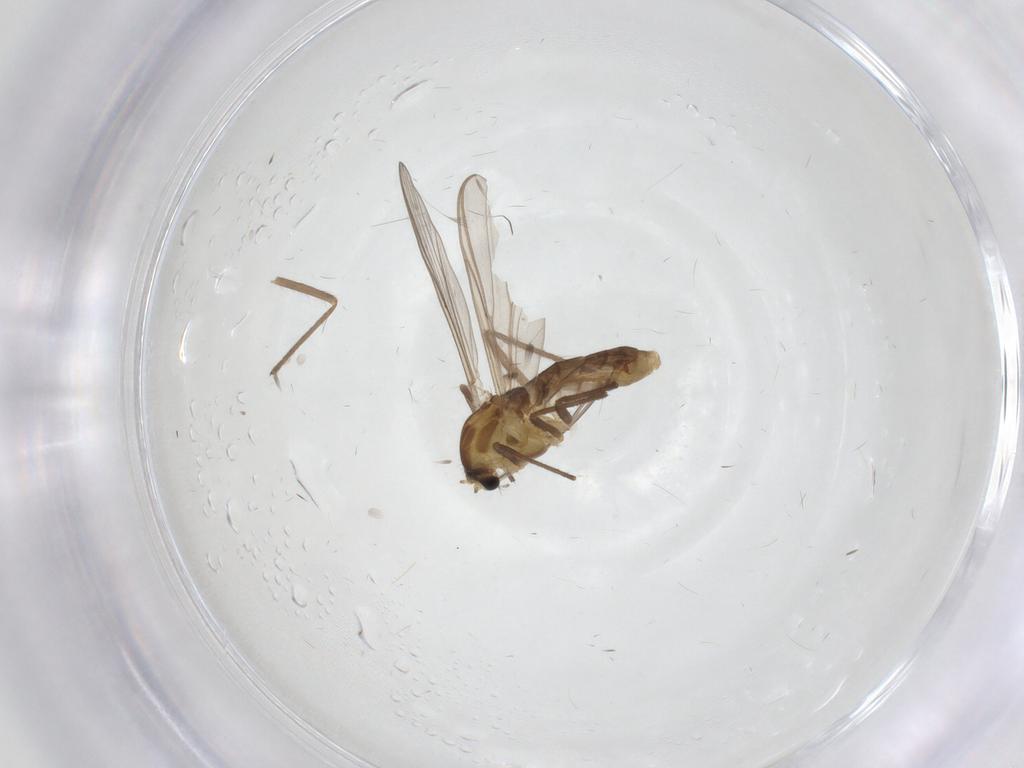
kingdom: Animalia
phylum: Arthropoda
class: Insecta
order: Diptera
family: Chironomidae
